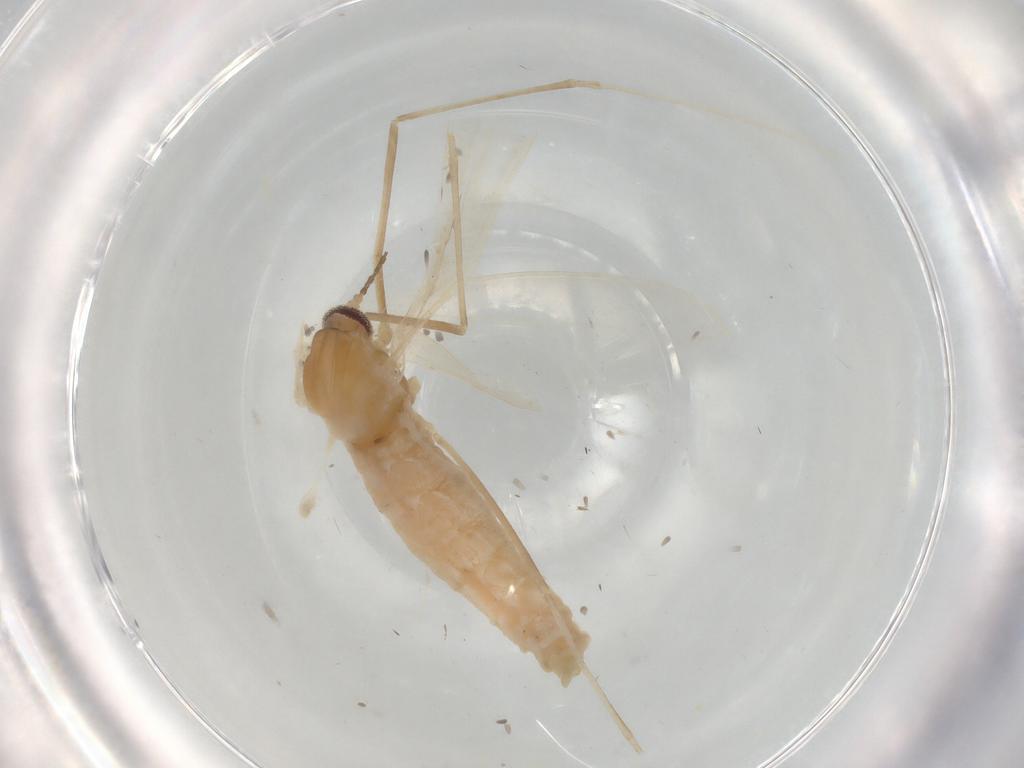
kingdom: Animalia
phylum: Arthropoda
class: Insecta
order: Diptera
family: Cecidomyiidae
